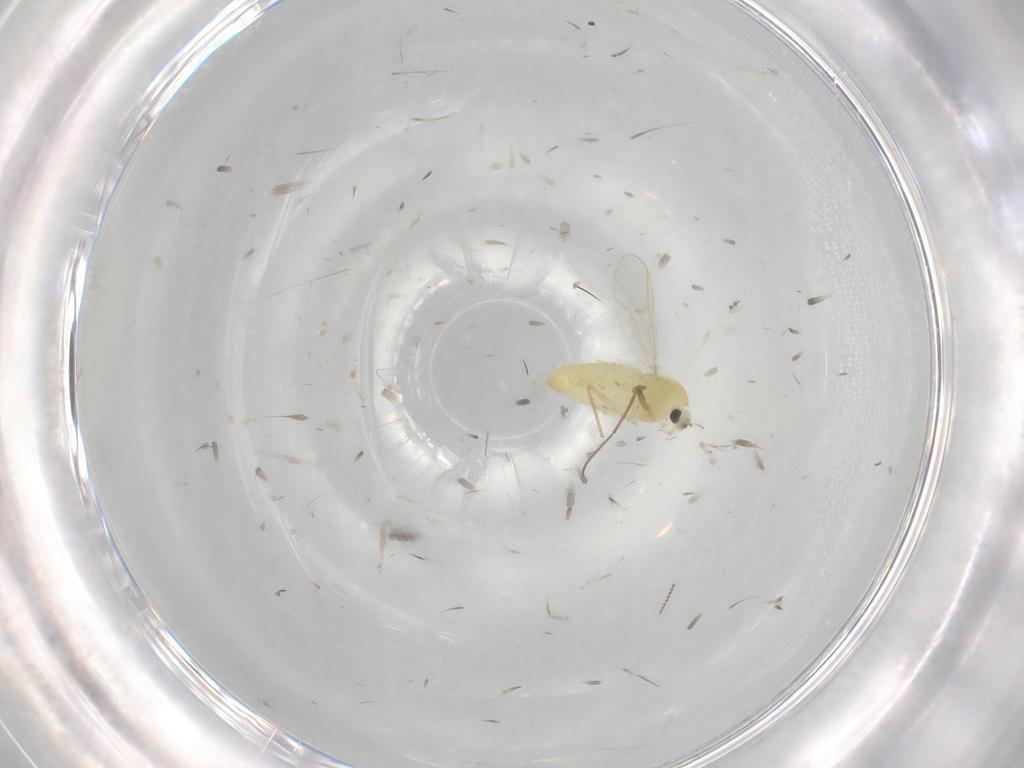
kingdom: Animalia
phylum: Arthropoda
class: Insecta
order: Diptera
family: Chironomidae
